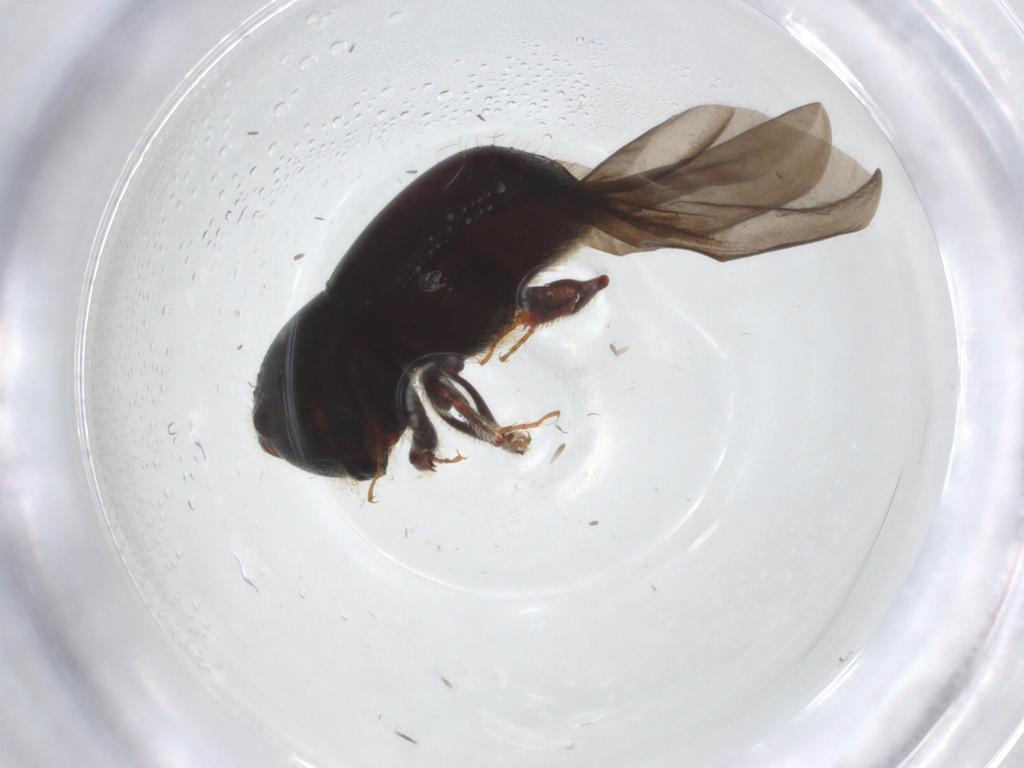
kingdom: Animalia
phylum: Arthropoda
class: Insecta
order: Coleoptera
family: Curculionidae
